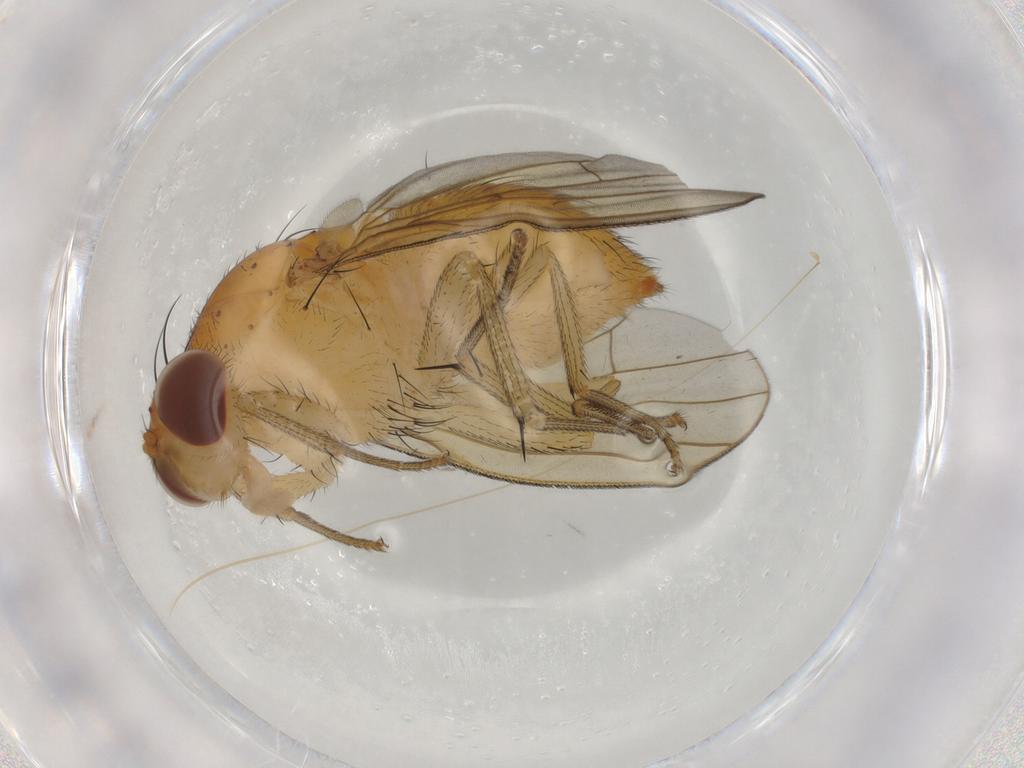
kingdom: Animalia
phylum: Arthropoda
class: Insecta
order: Diptera
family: Cecidomyiidae
